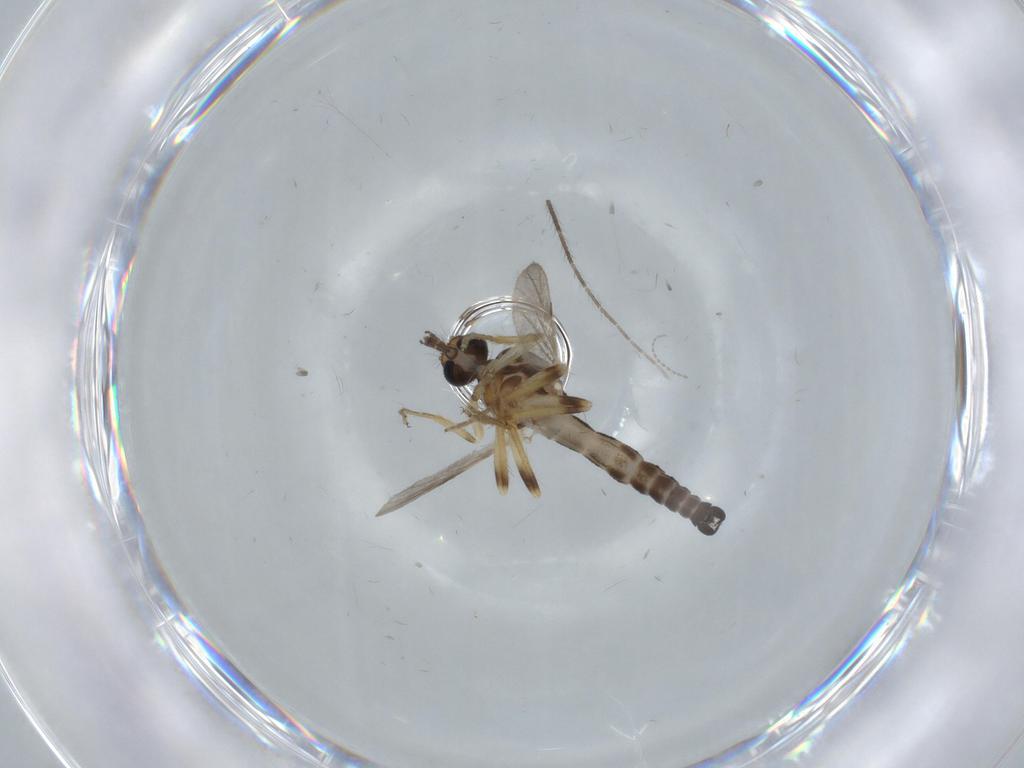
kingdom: Animalia
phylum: Arthropoda
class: Insecta
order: Diptera
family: Ceratopogonidae
